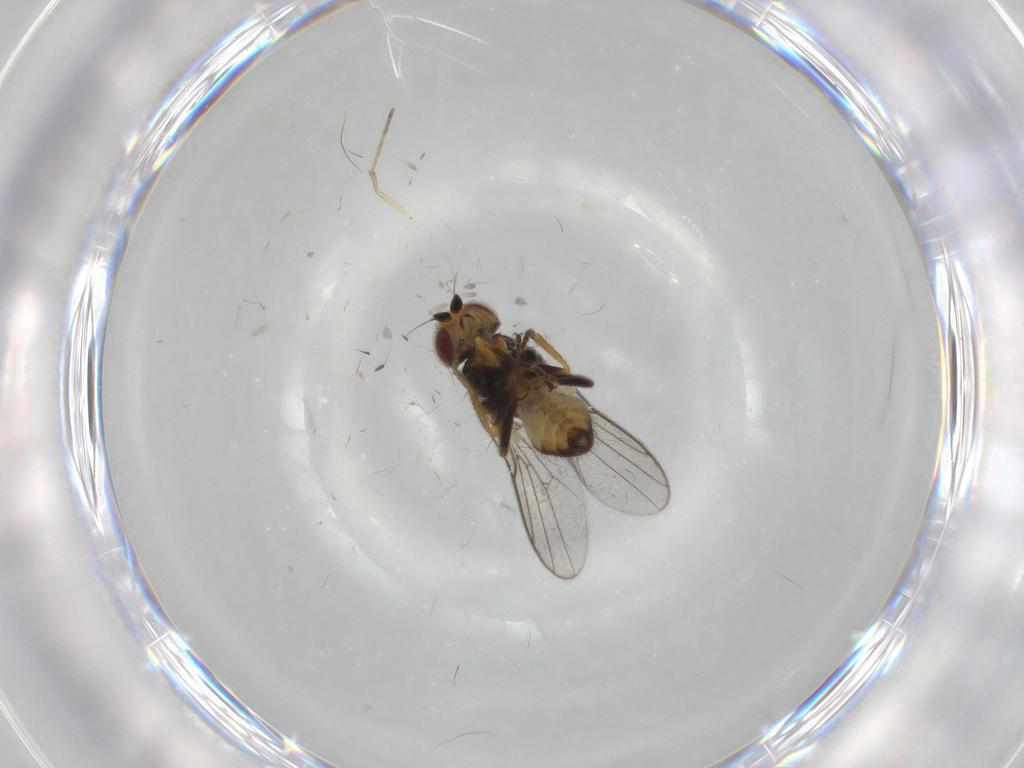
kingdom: Animalia
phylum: Arthropoda
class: Insecta
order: Diptera
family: Chloropidae
